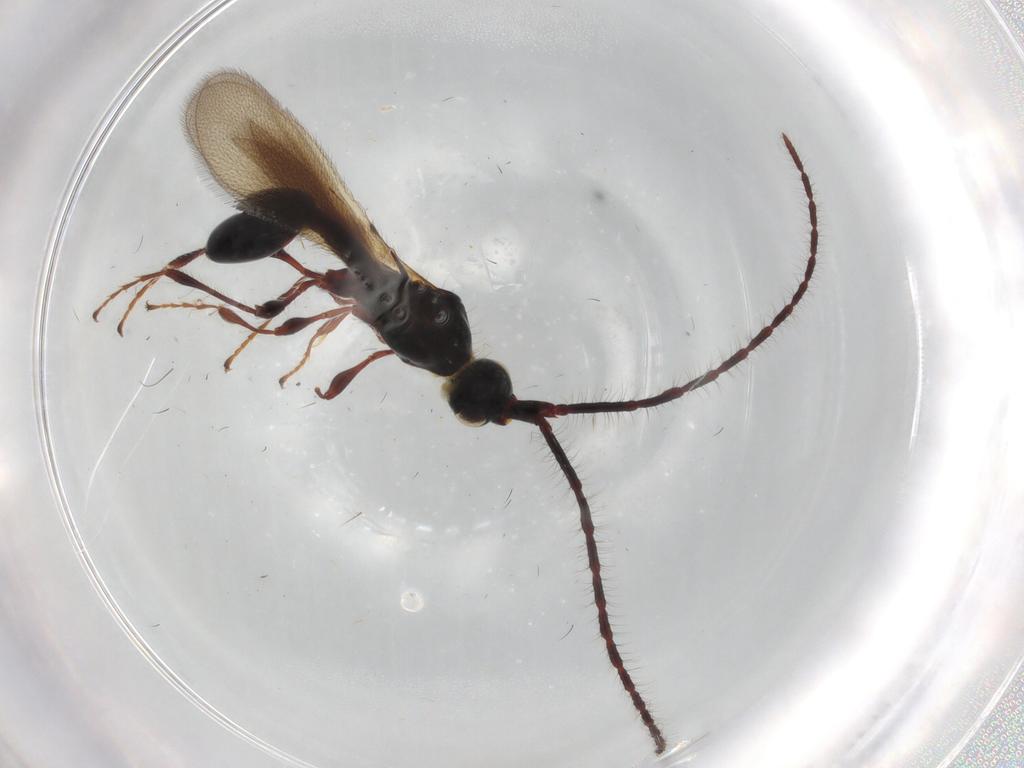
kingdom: Animalia
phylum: Arthropoda
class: Insecta
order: Hymenoptera
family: Diapriidae
